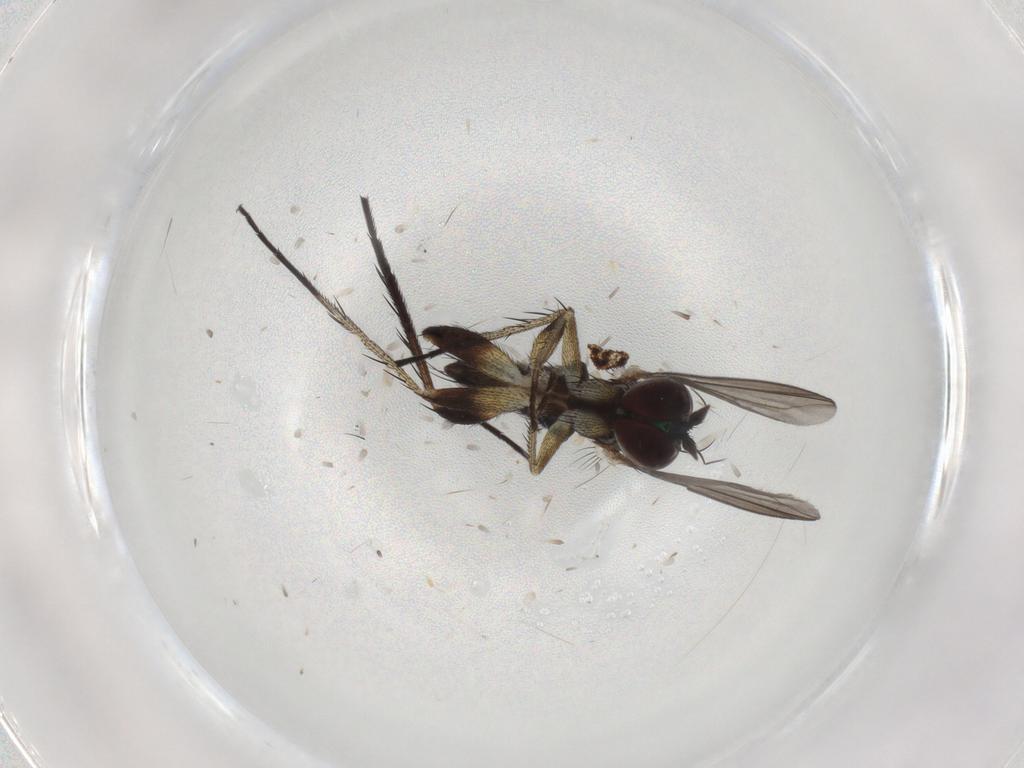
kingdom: Animalia
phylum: Arthropoda
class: Insecta
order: Diptera
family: Dolichopodidae
